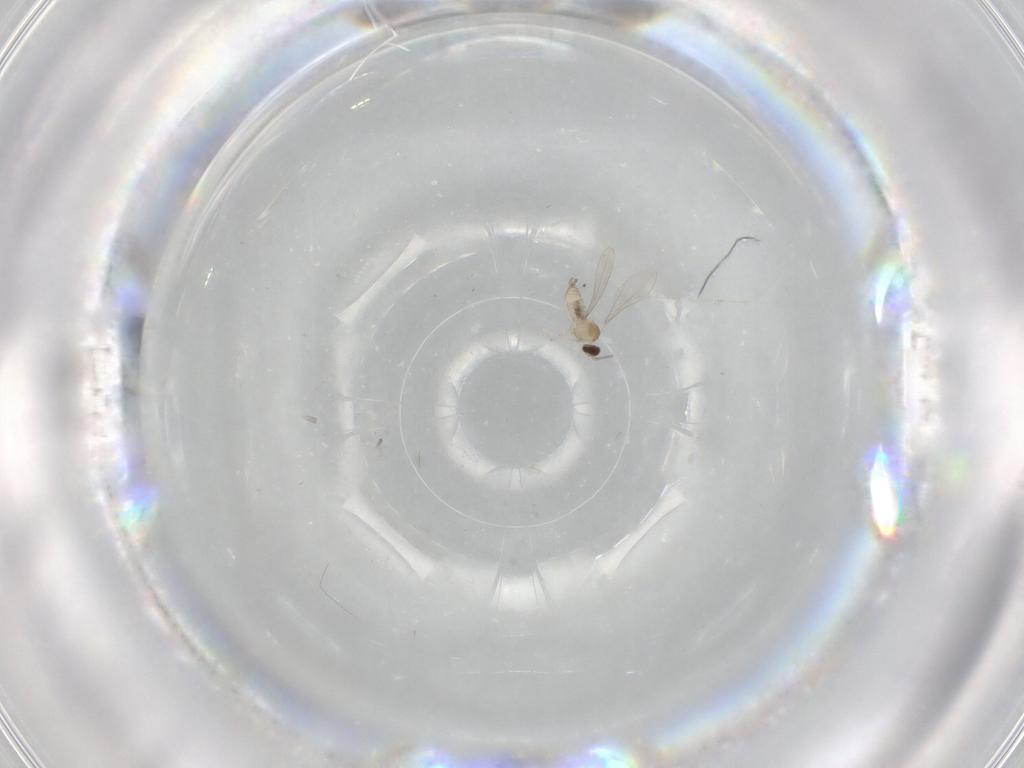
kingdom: Animalia
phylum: Arthropoda
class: Insecta
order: Diptera
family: Cecidomyiidae
